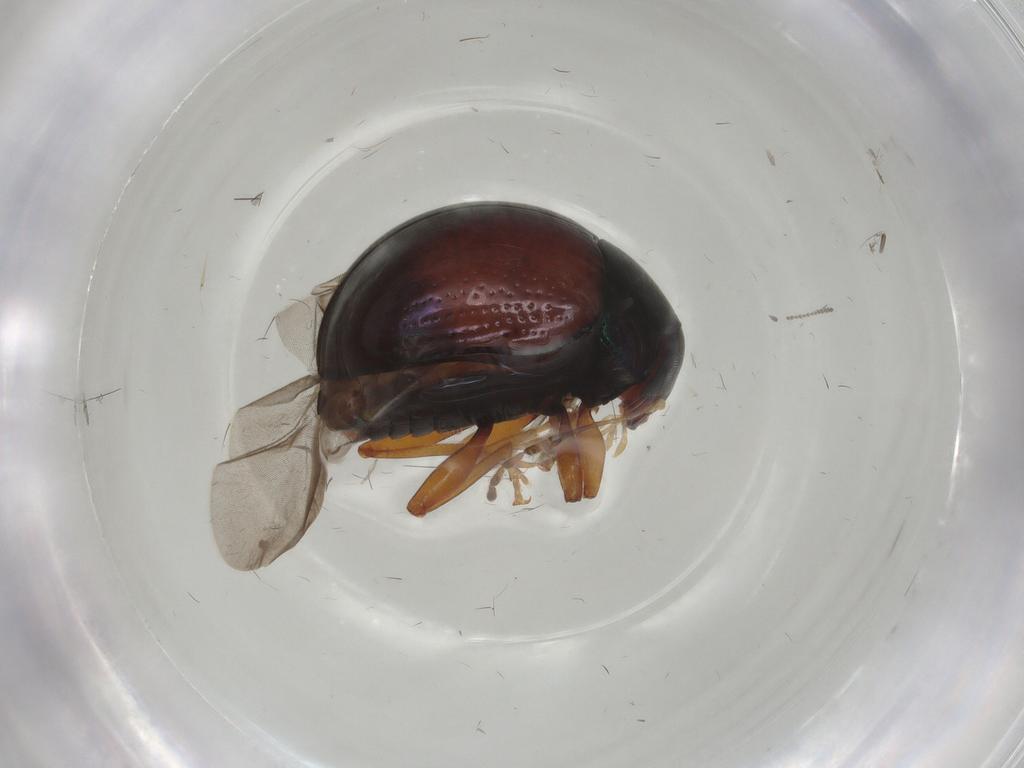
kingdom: Animalia
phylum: Arthropoda
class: Insecta
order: Coleoptera
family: Chrysomelidae
